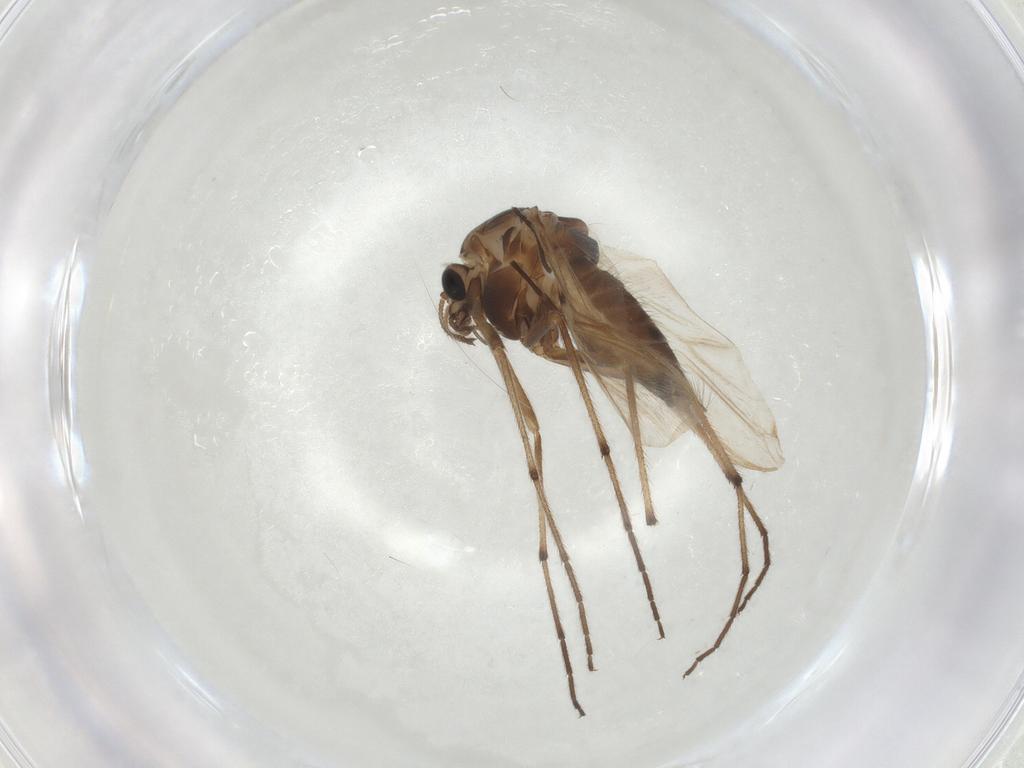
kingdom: Animalia
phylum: Arthropoda
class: Insecta
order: Diptera
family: Chironomidae
